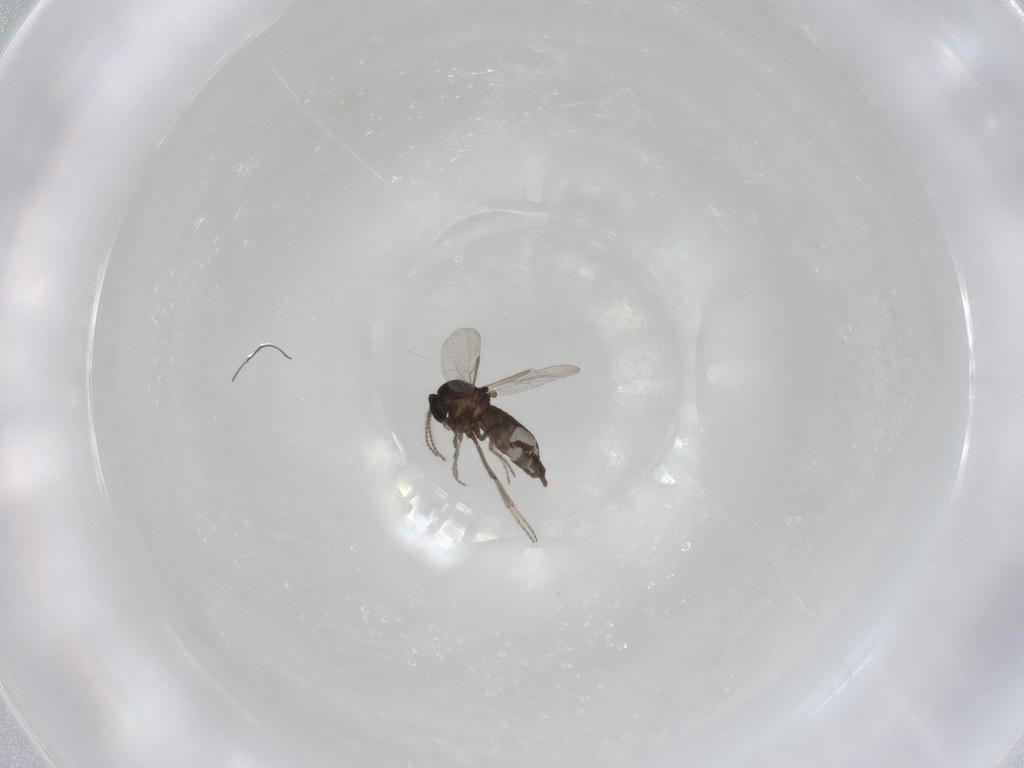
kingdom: Animalia
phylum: Arthropoda
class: Insecta
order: Diptera
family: Ceratopogonidae
